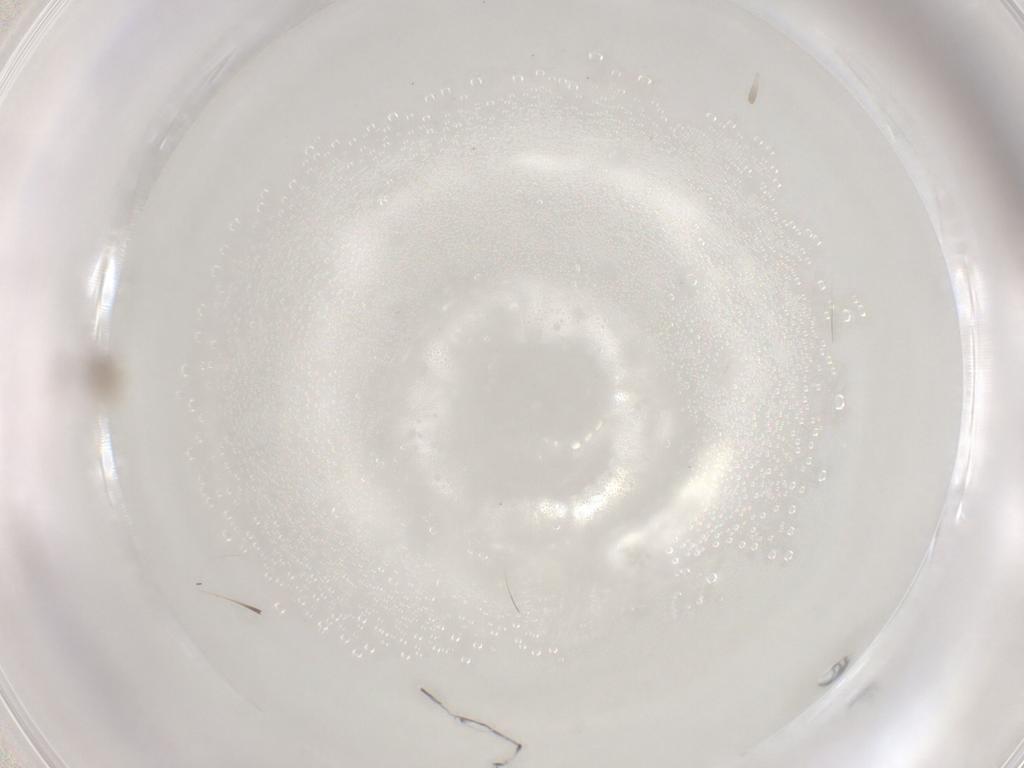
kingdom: Animalia
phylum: Arthropoda
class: Insecta
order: Diptera
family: Cecidomyiidae
